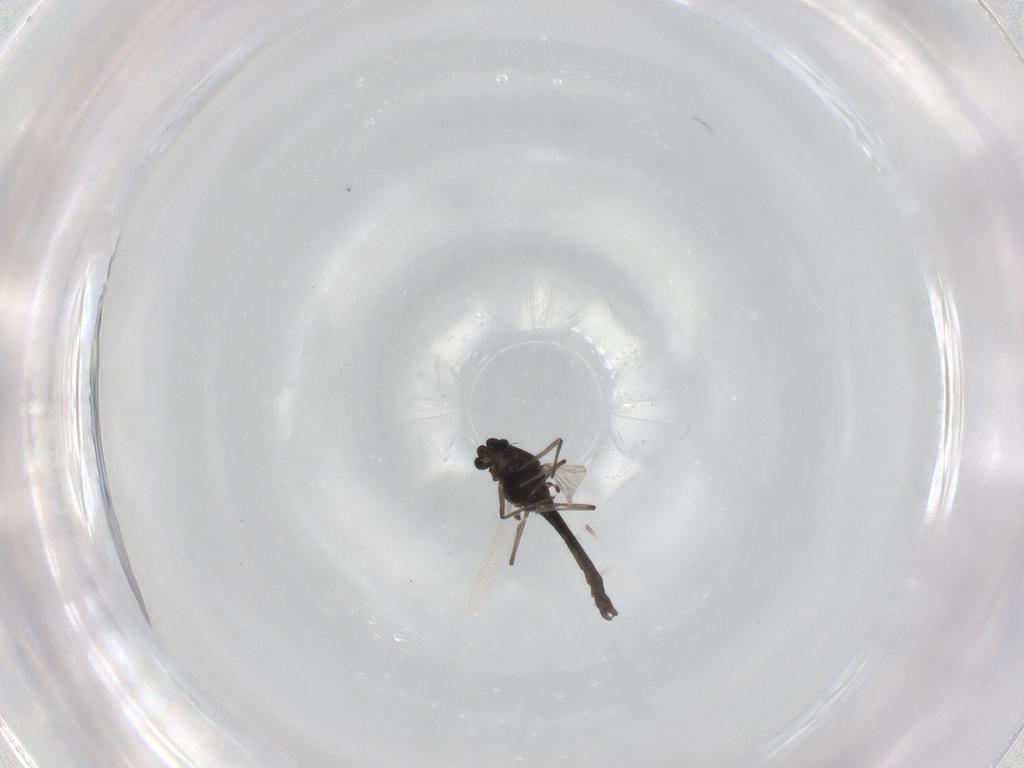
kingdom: Animalia
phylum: Arthropoda
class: Insecta
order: Diptera
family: Chironomidae
